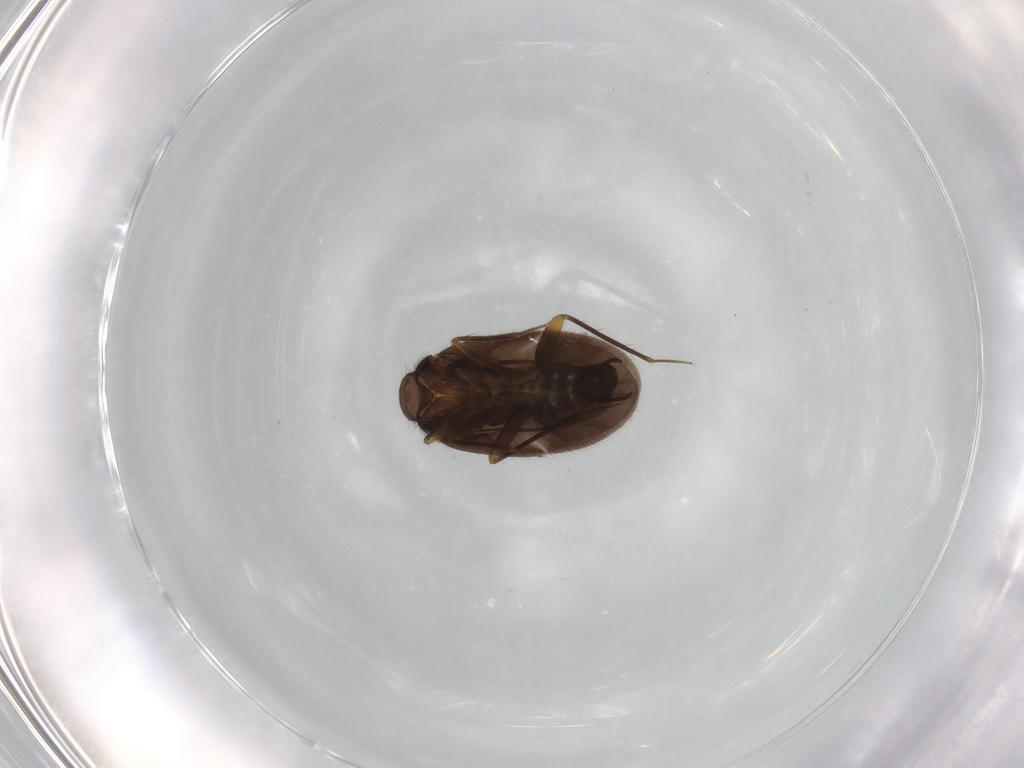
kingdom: Animalia
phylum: Arthropoda
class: Insecta
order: Hemiptera
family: Ceratocombidae
